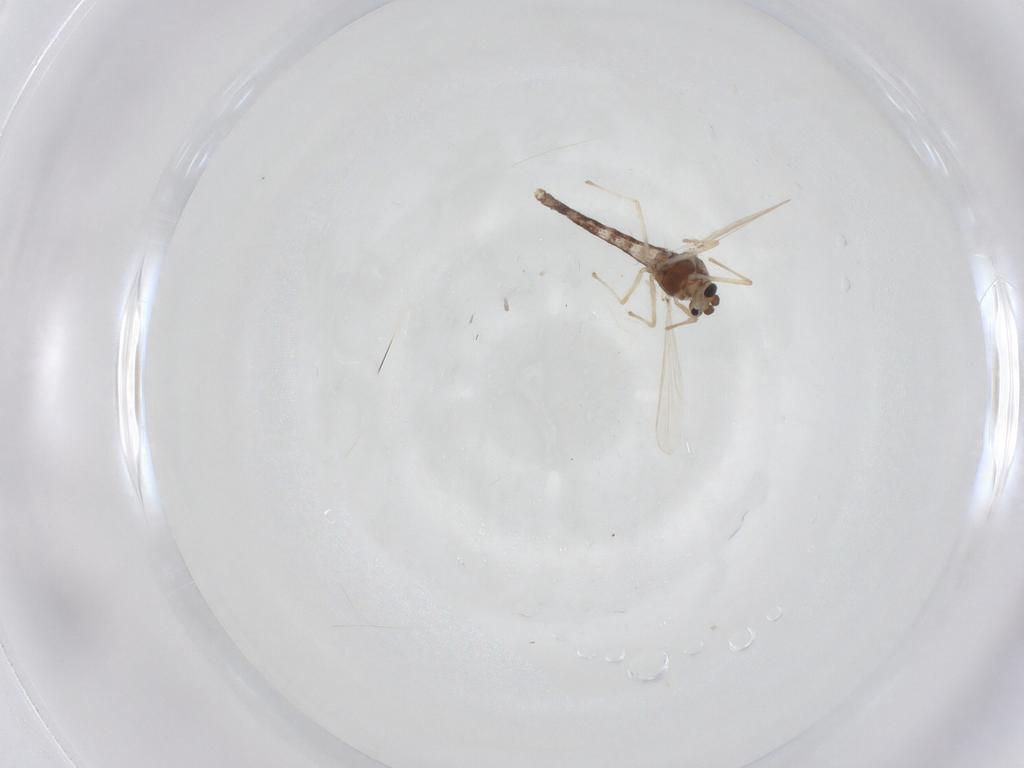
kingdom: Animalia
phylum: Arthropoda
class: Insecta
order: Diptera
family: Chironomidae
